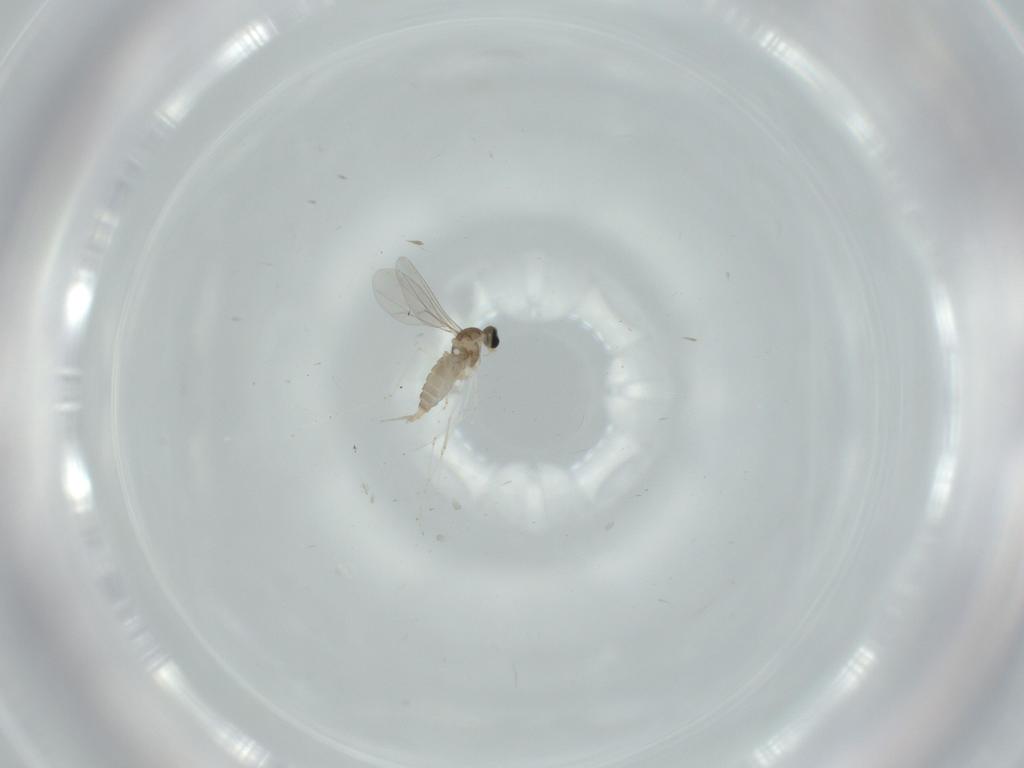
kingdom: Animalia
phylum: Arthropoda
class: Insecta
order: Diptera
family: Cecidomyiidae
